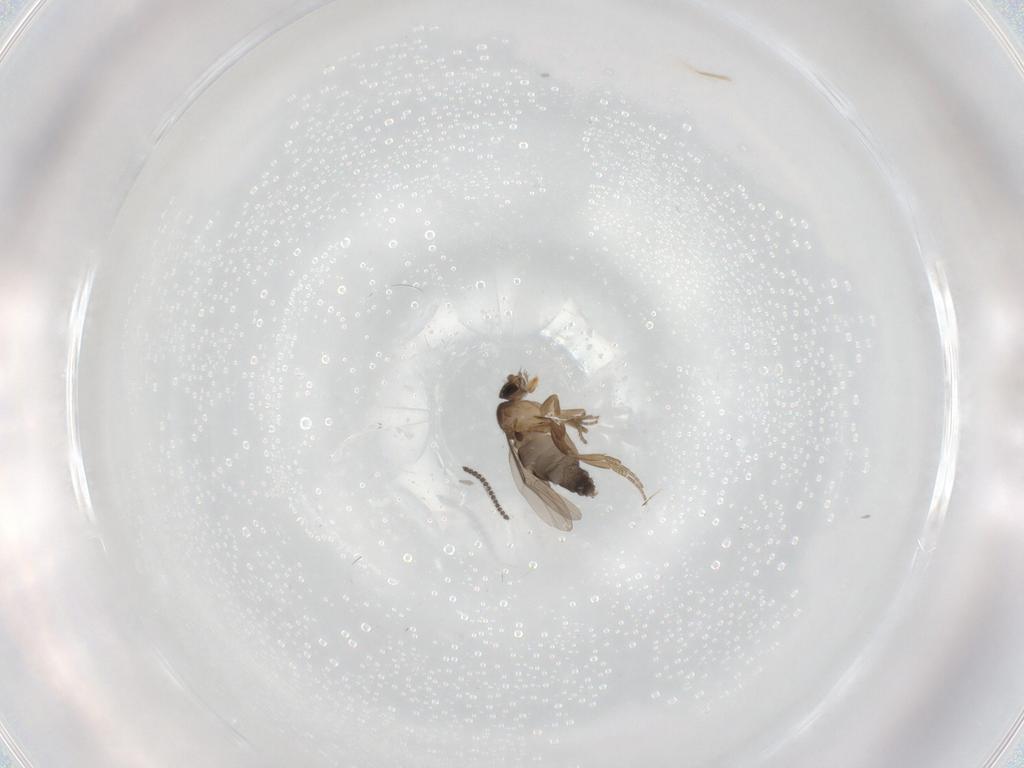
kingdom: Animalia
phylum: Arthropoda
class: Insecta
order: Diptera
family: Phoridae
